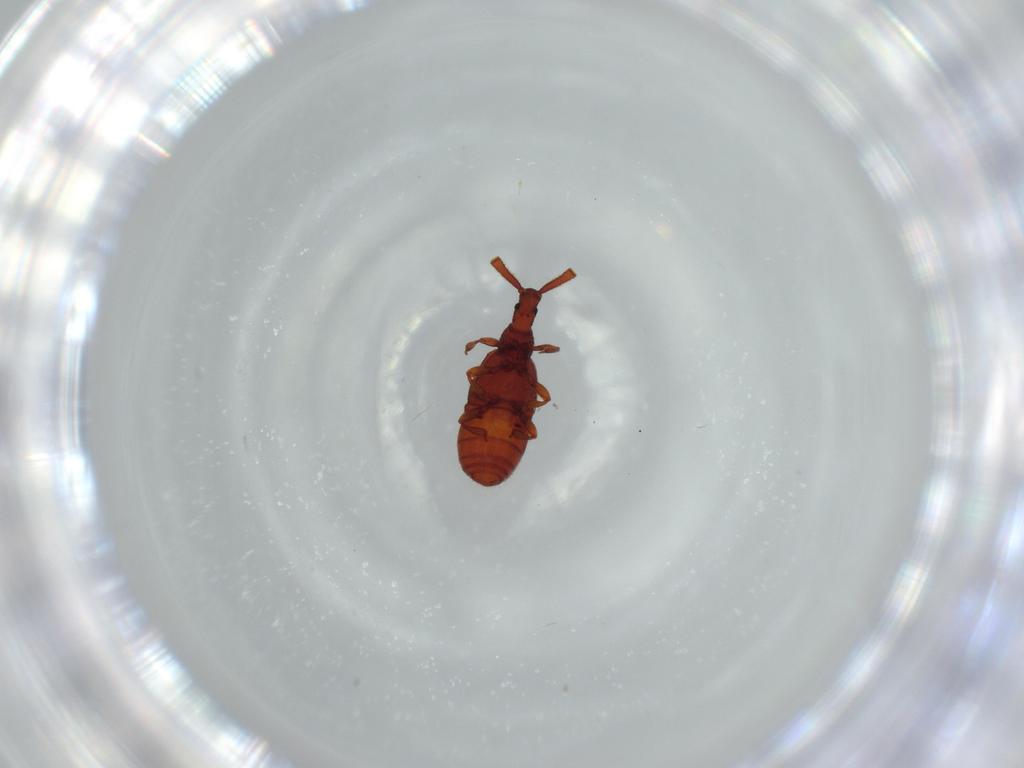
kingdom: Animalia
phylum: Arthropoda
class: Insecta
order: Coleoptera
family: Staphylinidae
